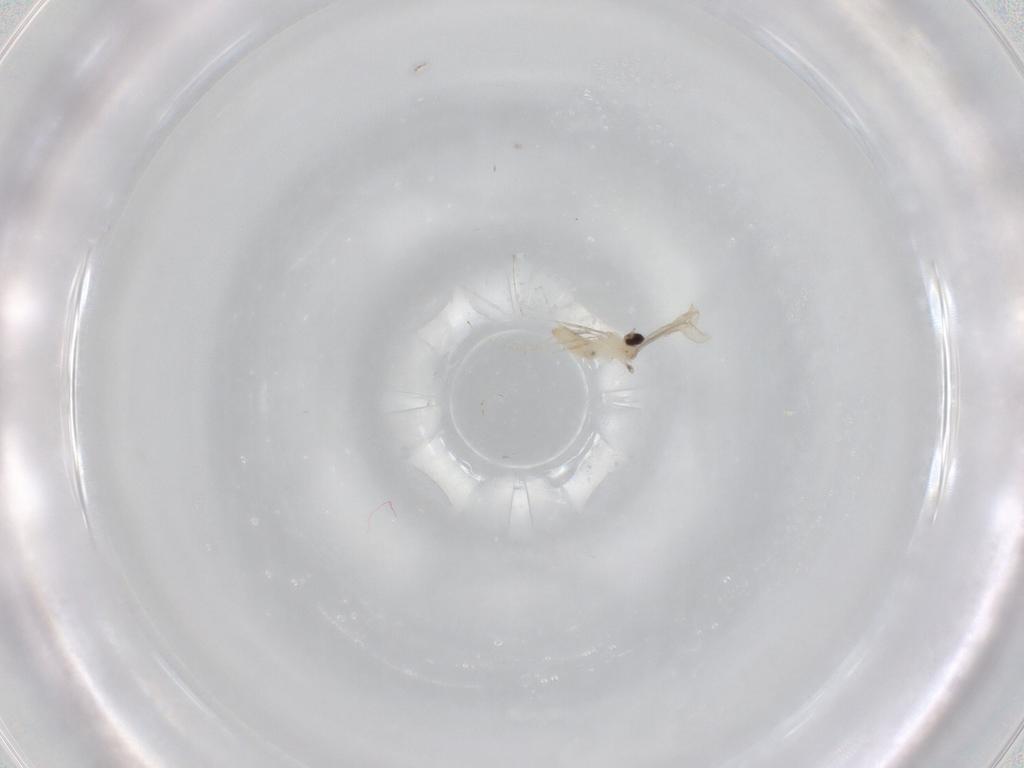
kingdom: Animalia
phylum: Arthropoda
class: Insecta
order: Diptera
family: Cecidomyiidae
